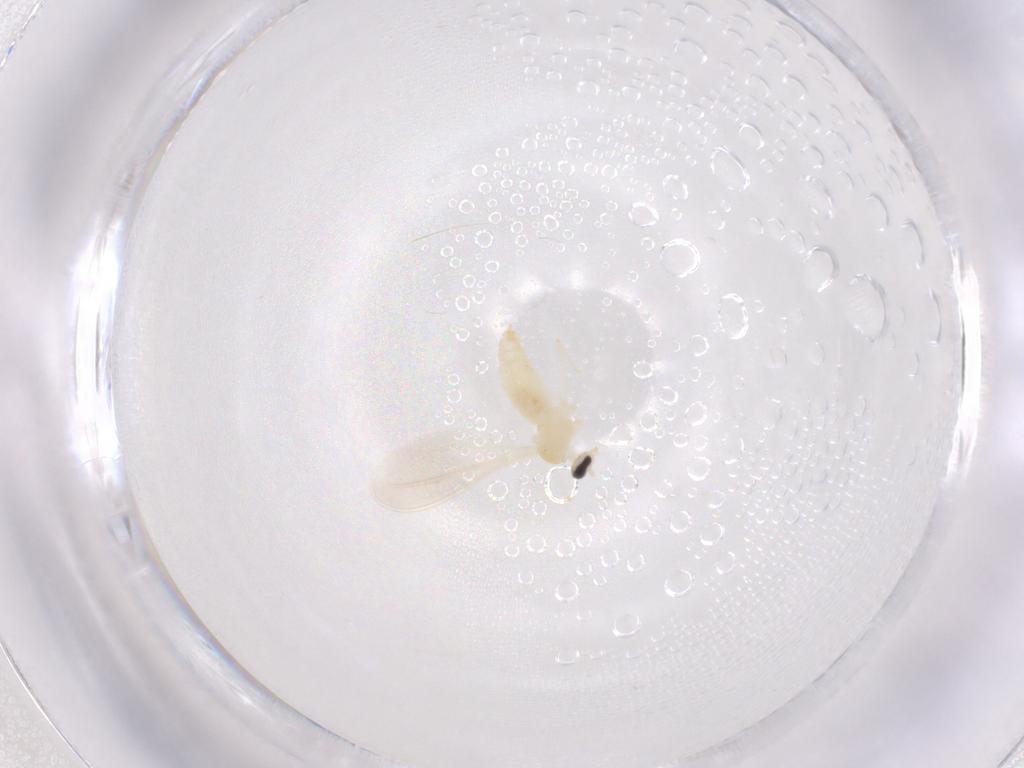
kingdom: Animalia
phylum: Arthropoda
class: Insecta
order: Diptera
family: Cecidomyiidae
